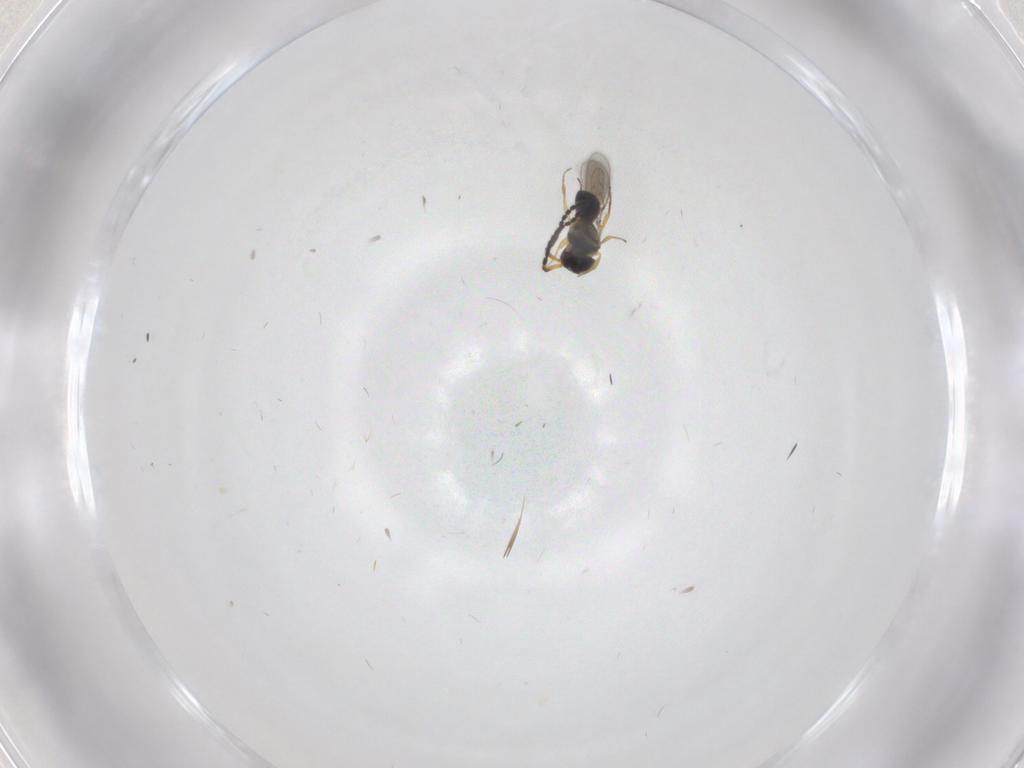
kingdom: Animalia
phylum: Arthropoda
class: Insecta
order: Hymenoptera
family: Scelionidae
